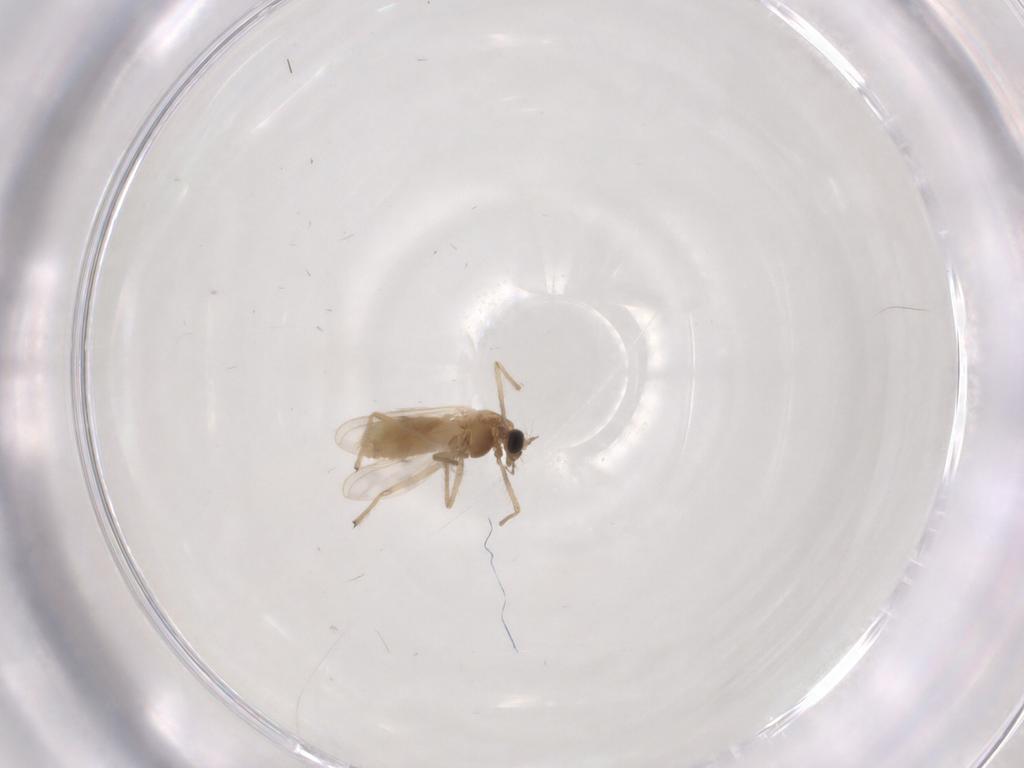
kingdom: Animalia
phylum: Arthropoda
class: Insecta
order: Diptera
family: Chironomidae
